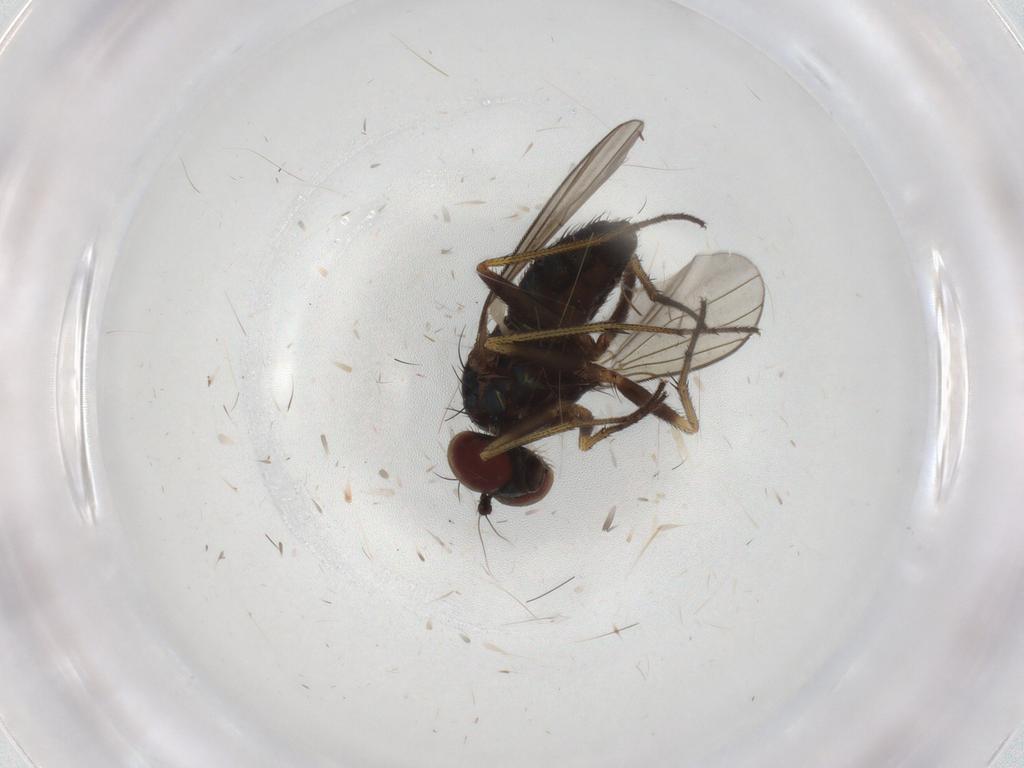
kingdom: Animalia
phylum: Arthropoda
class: Insecta
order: Diptera
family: Dolichopodidae
